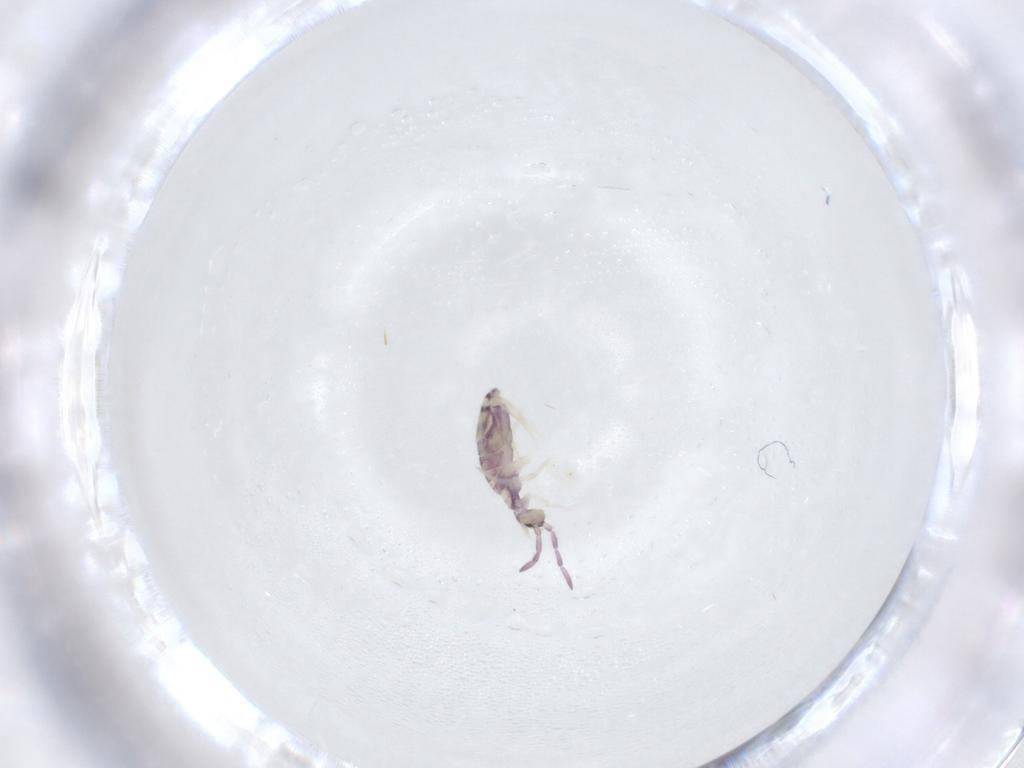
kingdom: Animalia
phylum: Arthropoda
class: Collembola
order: Entomobryomorpha
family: Entomobryidae
